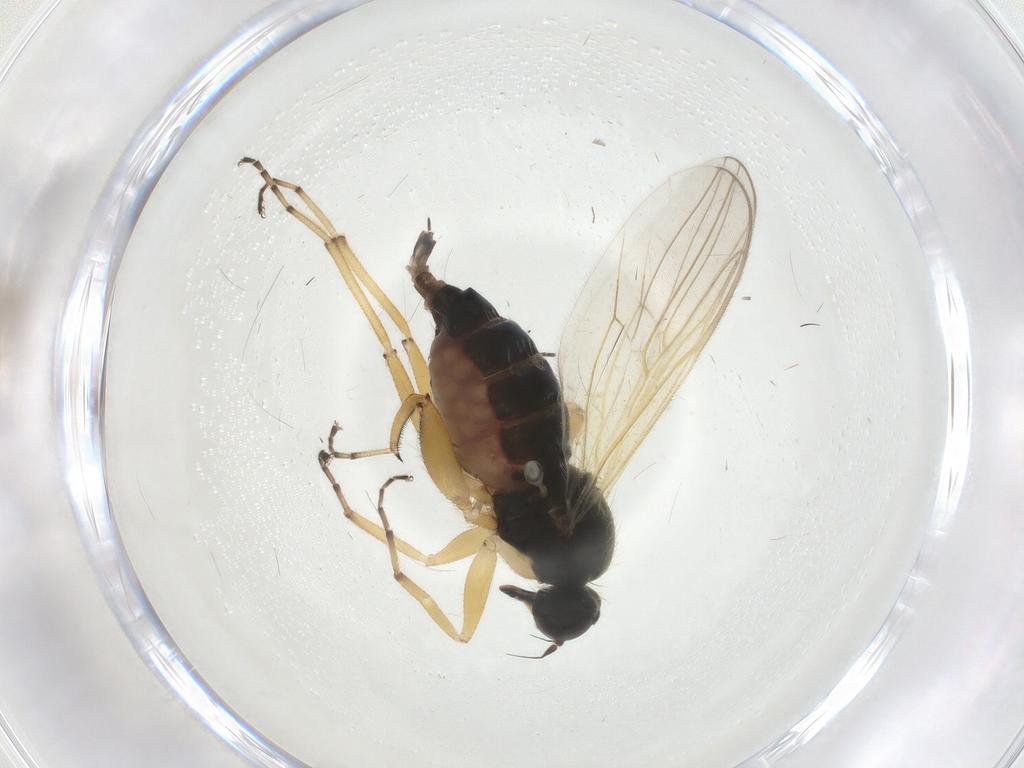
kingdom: Animalia
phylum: Arthropoda
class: Insecta
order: Diptera
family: Hybotidae
